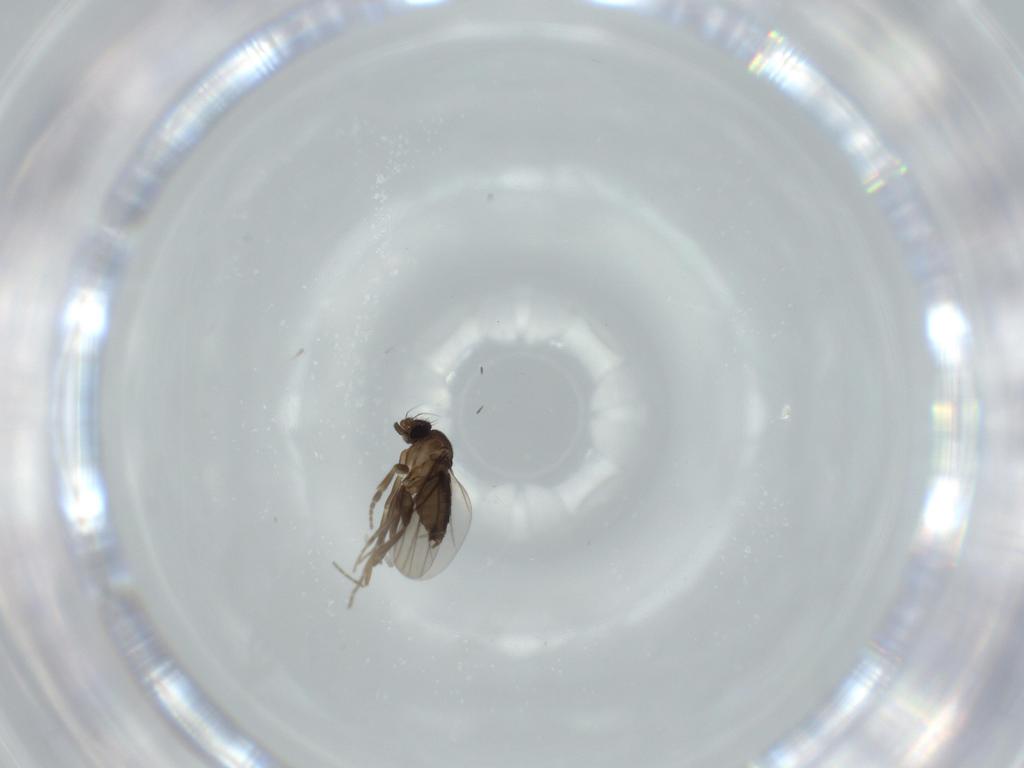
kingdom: Animalia
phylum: Arthropoda
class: Insecta
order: Diptera
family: Phoridae
